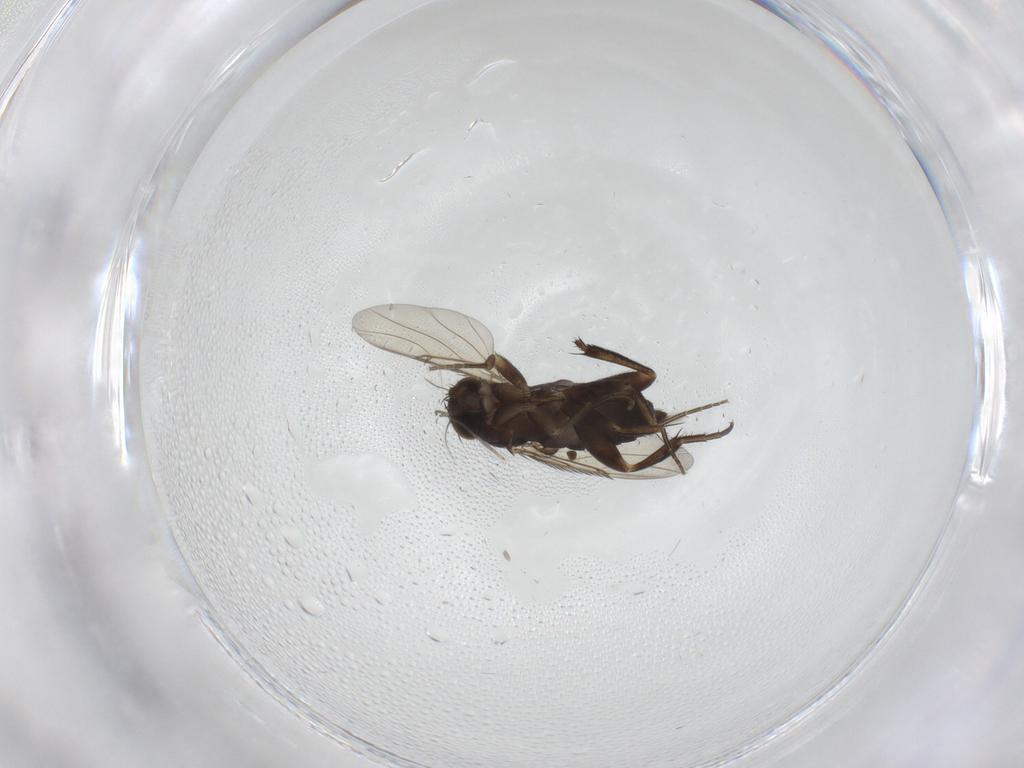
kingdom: Animalia
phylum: Arthropoda
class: Insecta
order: Diptera
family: Phoridae
